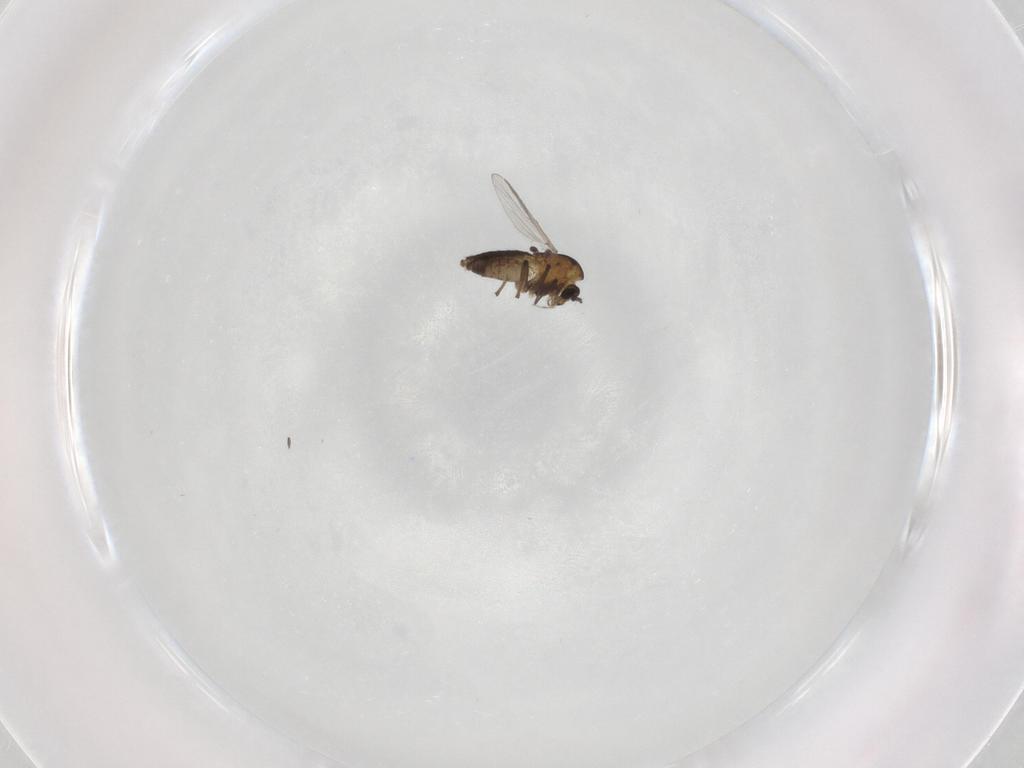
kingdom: Animalia
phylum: Arthropoda
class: Insecta
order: Diptera
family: Chironomidae
